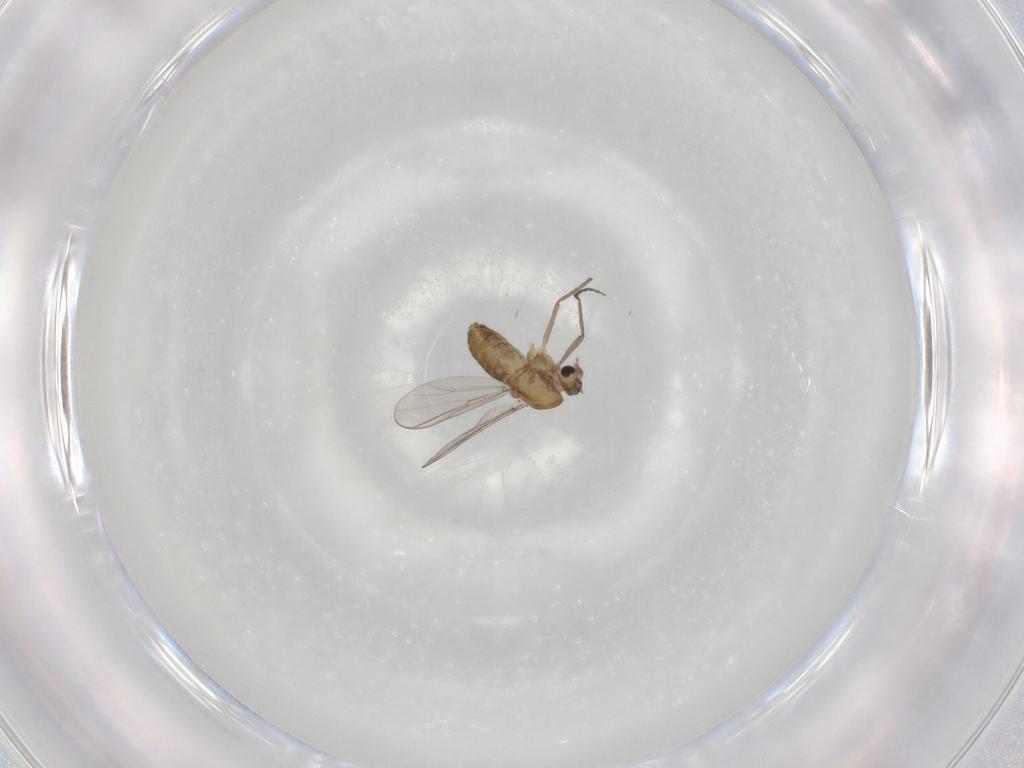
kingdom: Animalia
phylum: Arthropoda
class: Insecta
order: Diptera
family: Chironomidae
